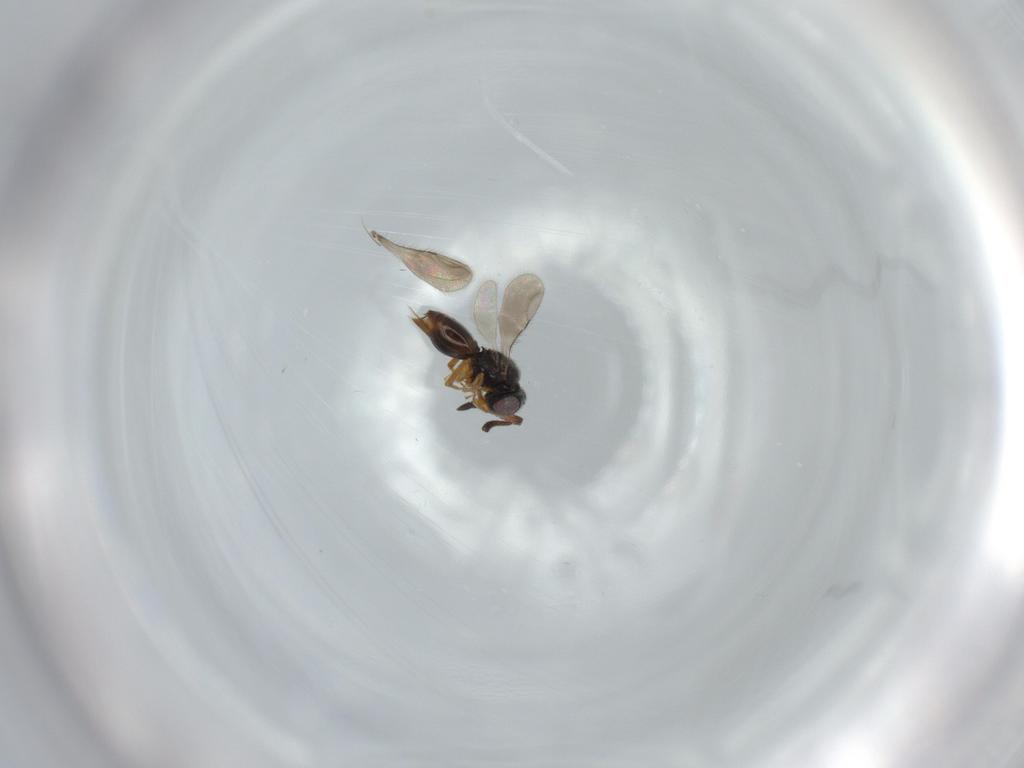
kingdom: Animalia
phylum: Arthropoda
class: Insecta
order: Hymenoptera
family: Ceraphronidae
